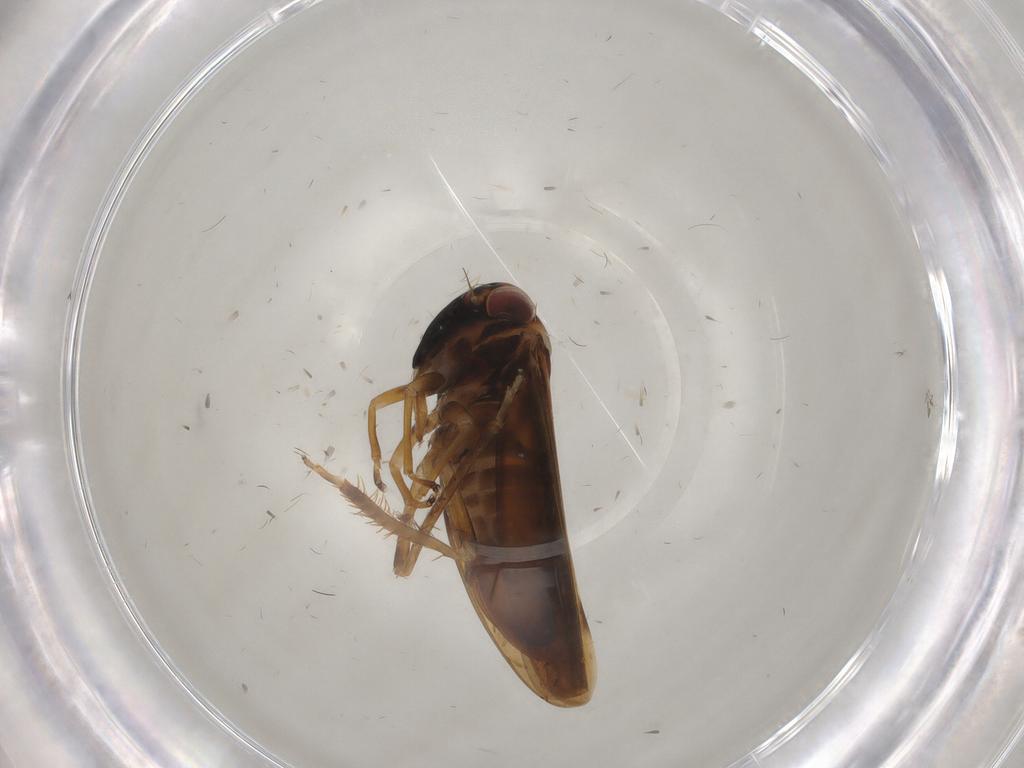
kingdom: Animalia
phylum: Arthropoda
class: Insecta
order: Hemiptera
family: Cicadellidae
